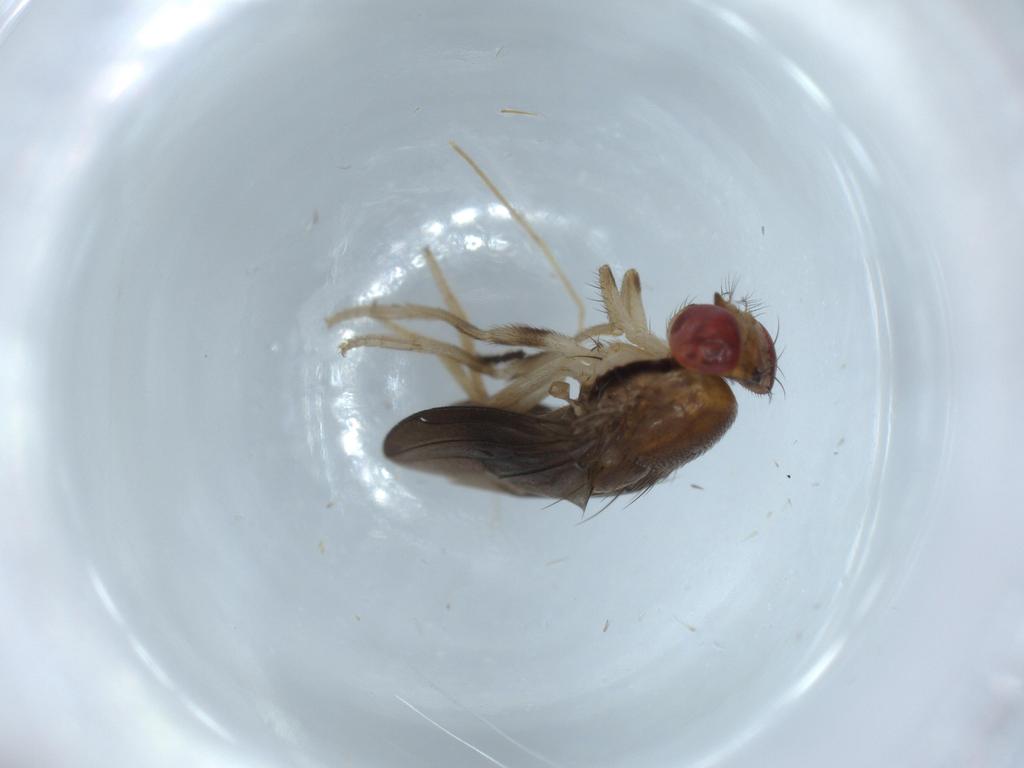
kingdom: Animalia
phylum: Arthropoda
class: Insecta
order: Diptera
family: Drosophilidae
